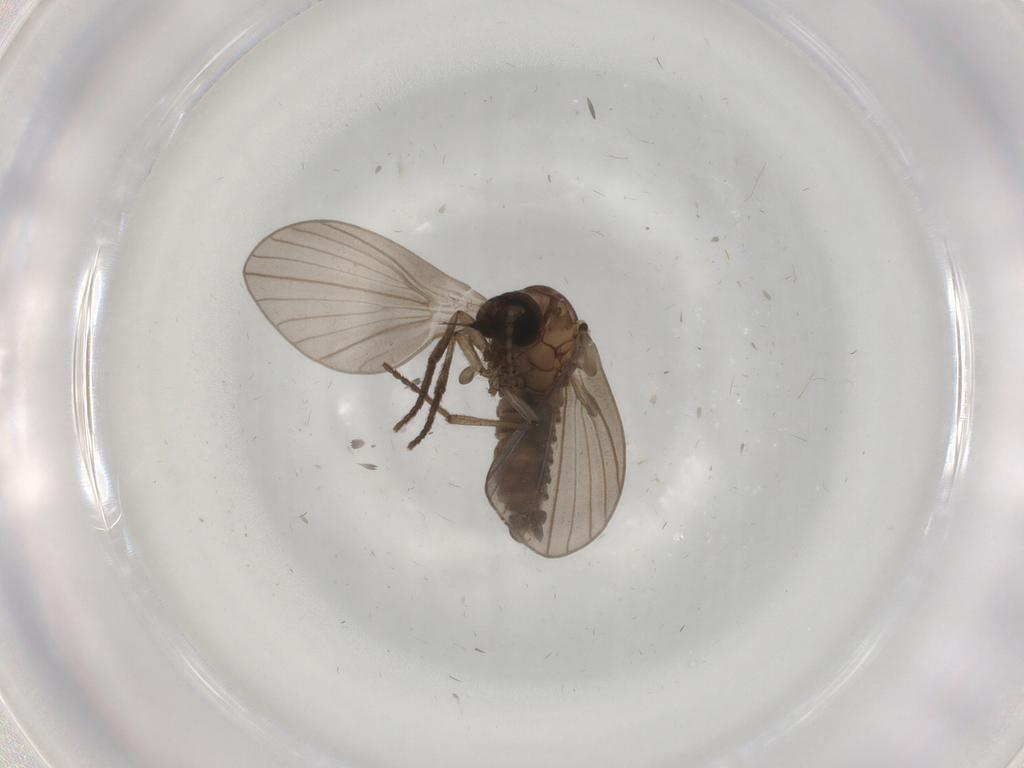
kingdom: Animalia
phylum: Arthropoda
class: Insecta
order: Diptera
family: Psychodidae
